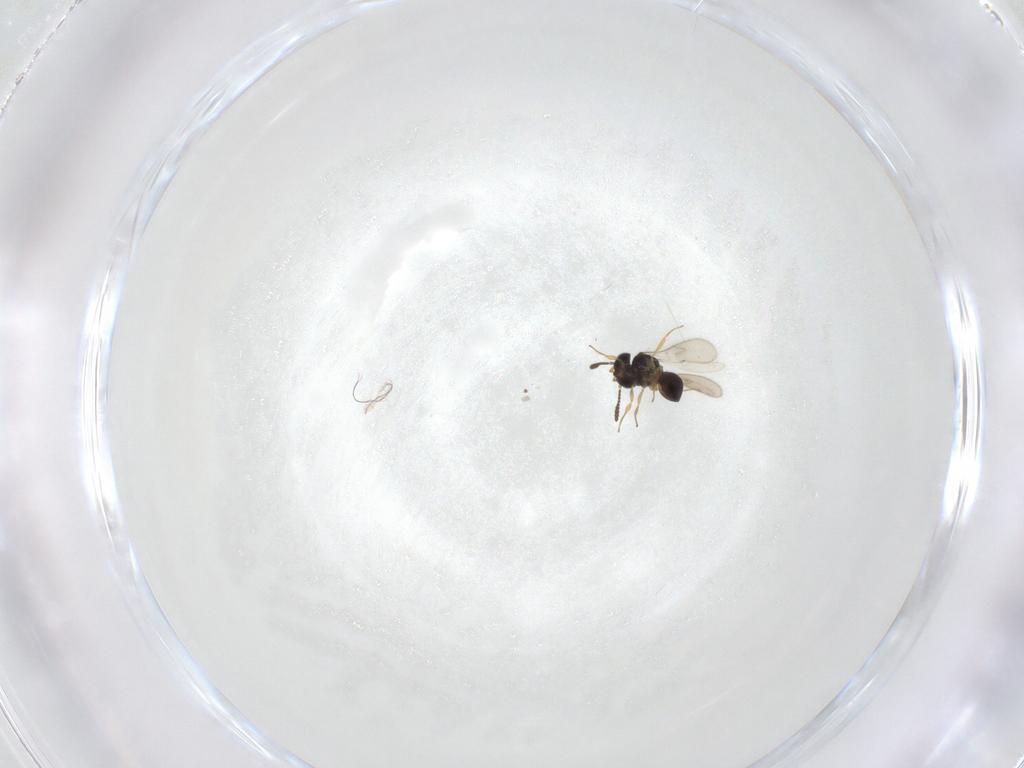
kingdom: Animalia
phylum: Arthropoda
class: Insecta
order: Hymenoptera
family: Scelionidae
